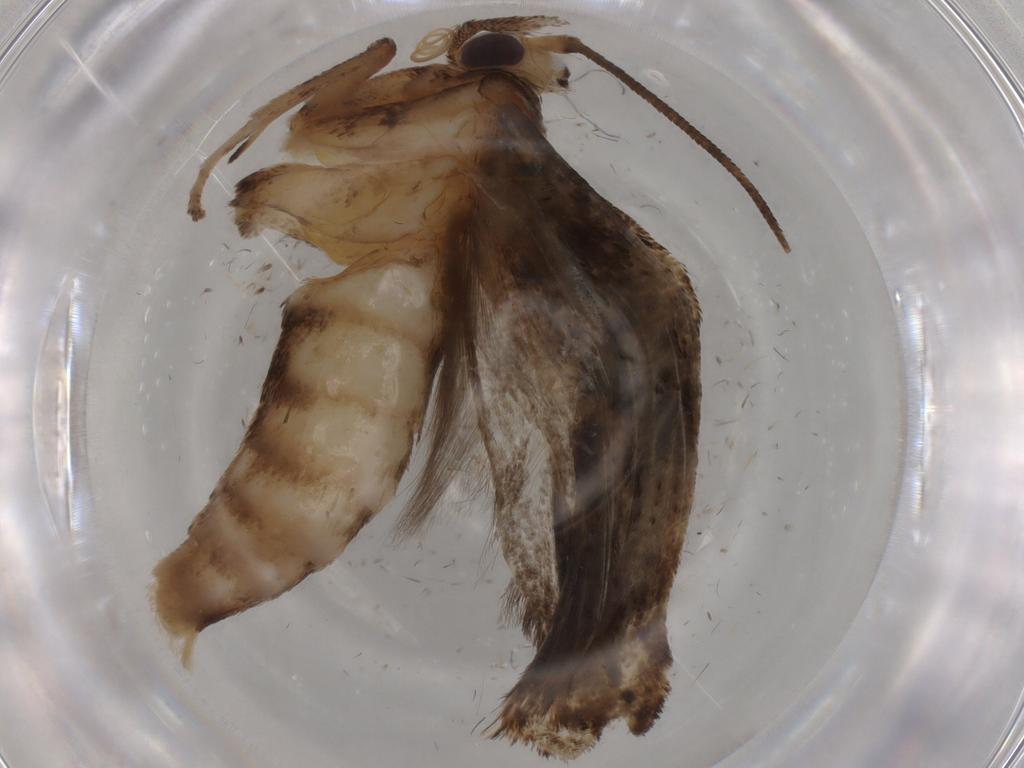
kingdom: Animalia
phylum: Arthropoda
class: Insecta
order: Lepidoptera
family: Yponomeutidae
